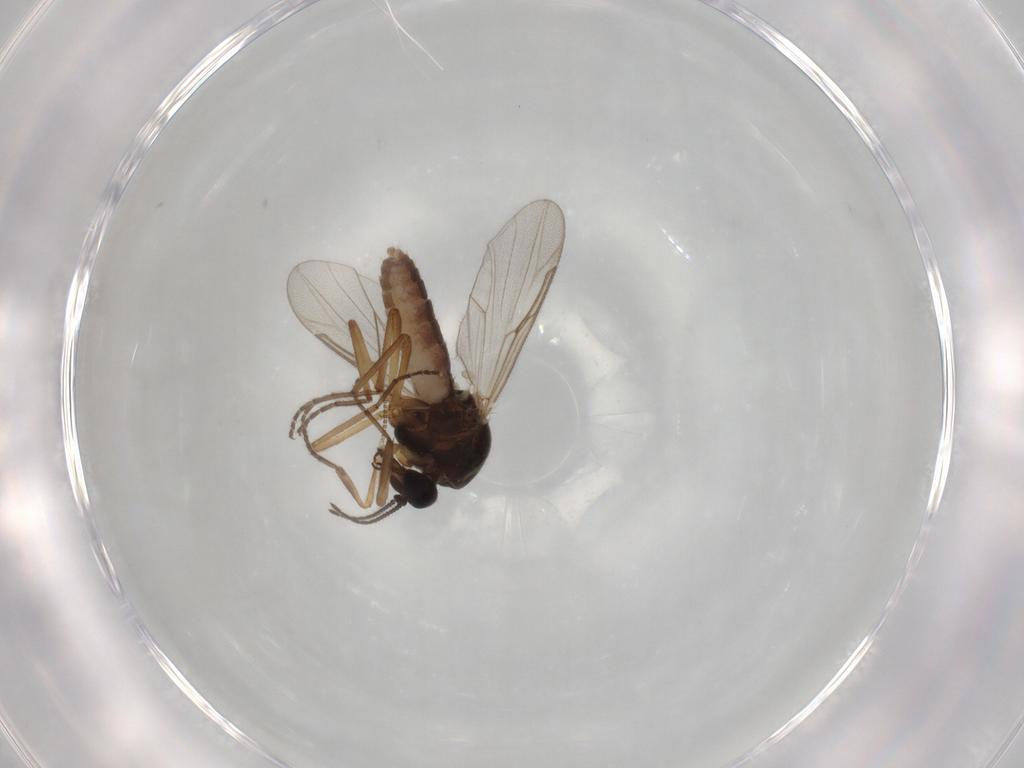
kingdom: Animalia
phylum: Arthropoda
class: Insecta
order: Diptera
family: Ceratopogonidae
